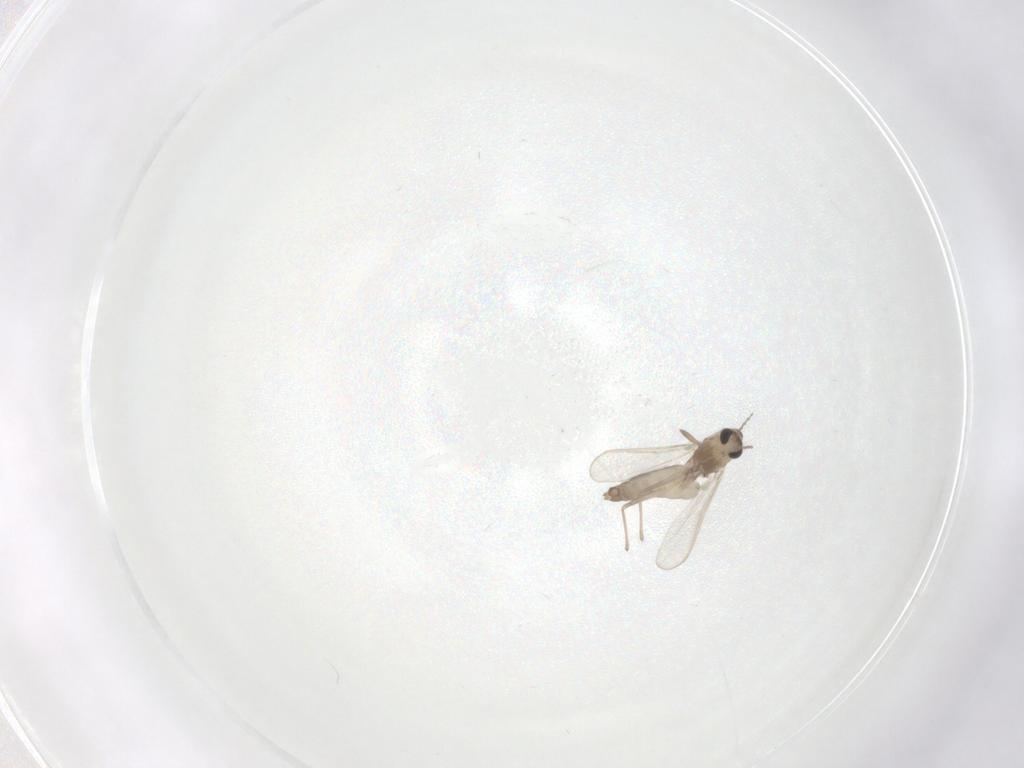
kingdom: Animalia
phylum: Arthropoda
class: Insecta
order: Diptera
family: Chironomidae
